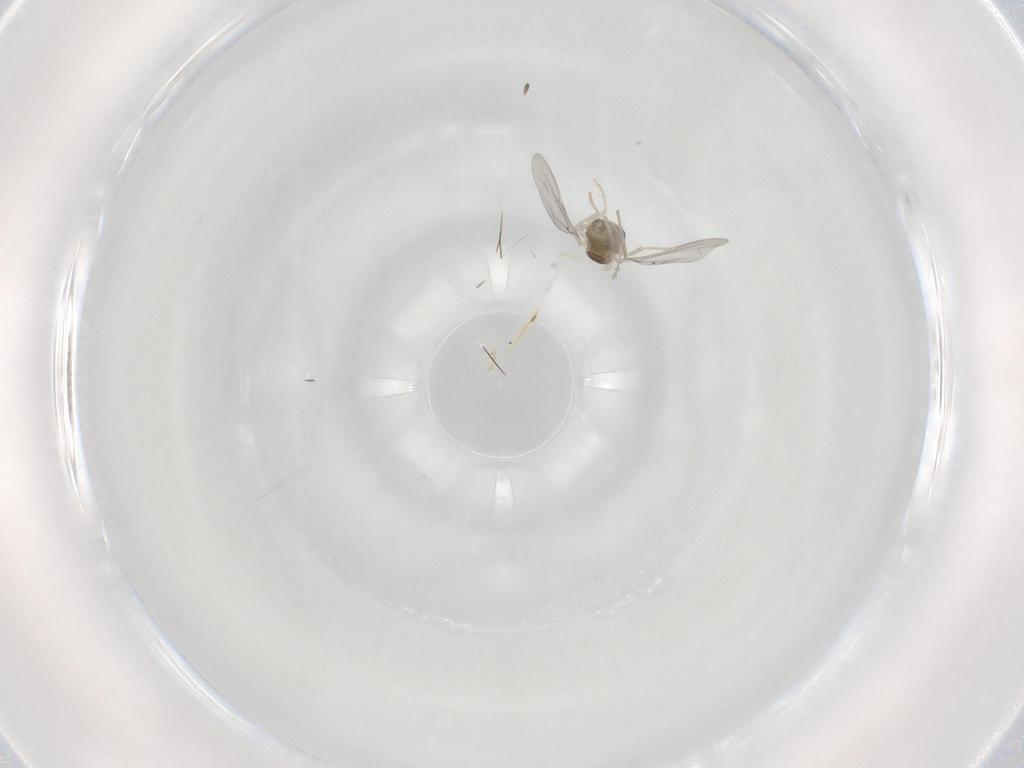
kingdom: Animalia
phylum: Arthropoda
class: Insecta
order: Diptera
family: Cecidomyiidae
